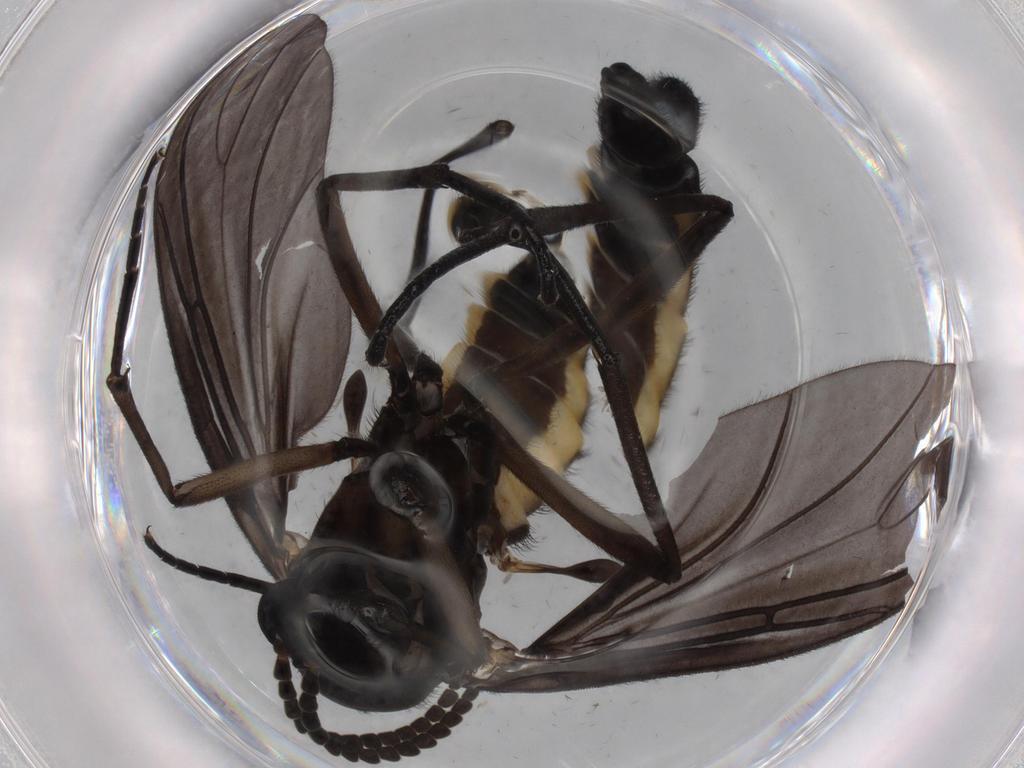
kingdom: Animalia
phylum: Arthropoda
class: Insecta
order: Diptera
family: Sciaridae
